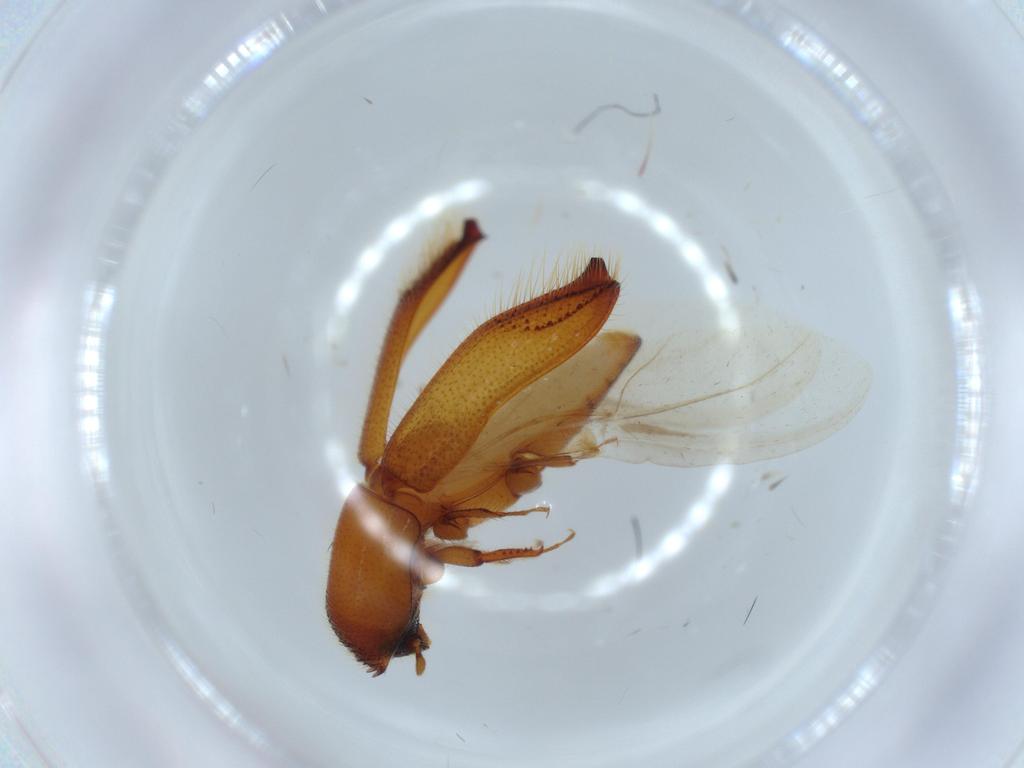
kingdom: Animalia
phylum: Arthropoda
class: Insecta
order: Coleoptera
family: Curculionidae
